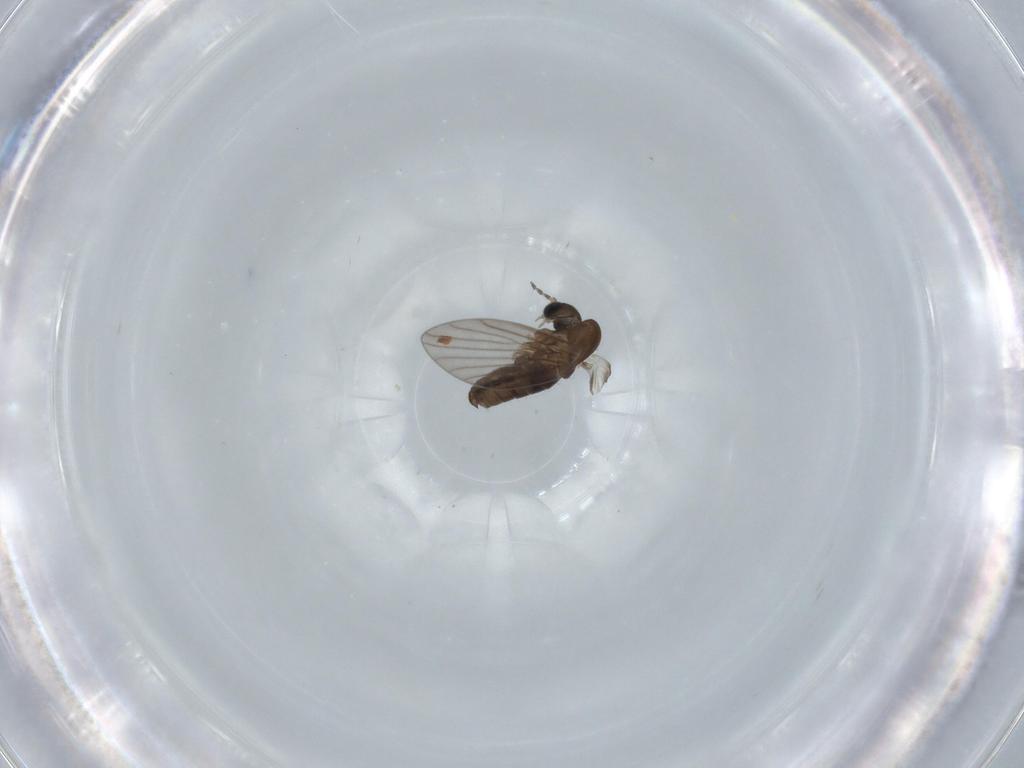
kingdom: Animalia
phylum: Arthropoda
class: Insecta
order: Diptera
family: Psychodidae
